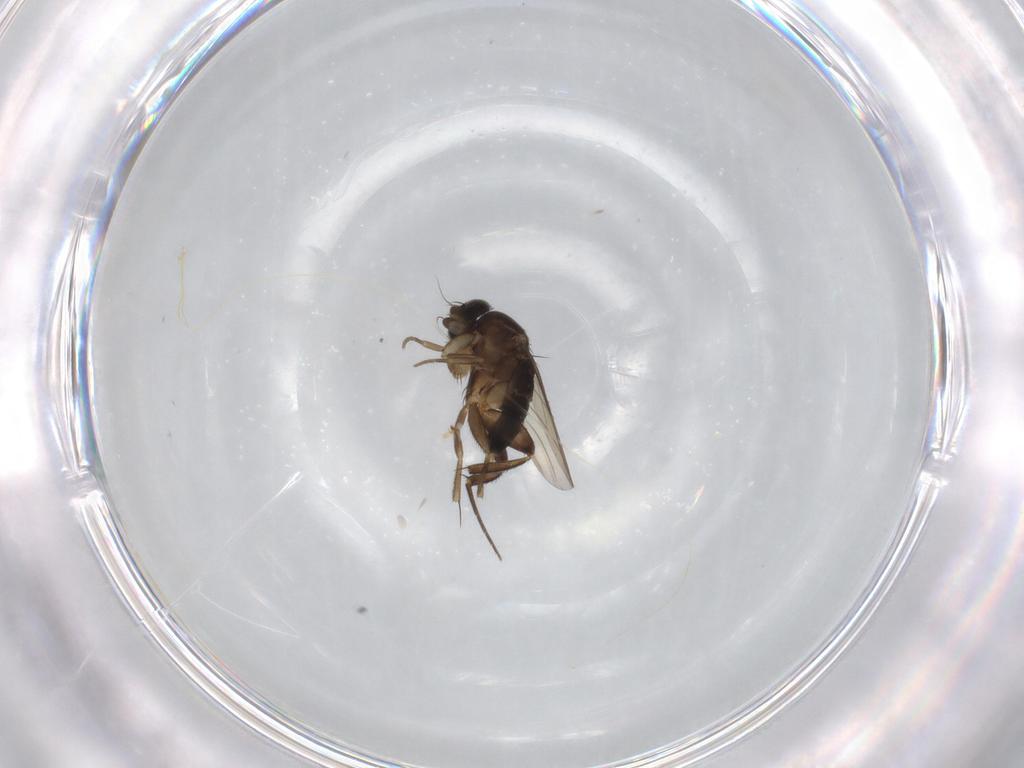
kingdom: Animalia
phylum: Arthropoda
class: Insecta
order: Diptera
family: Phoridae
